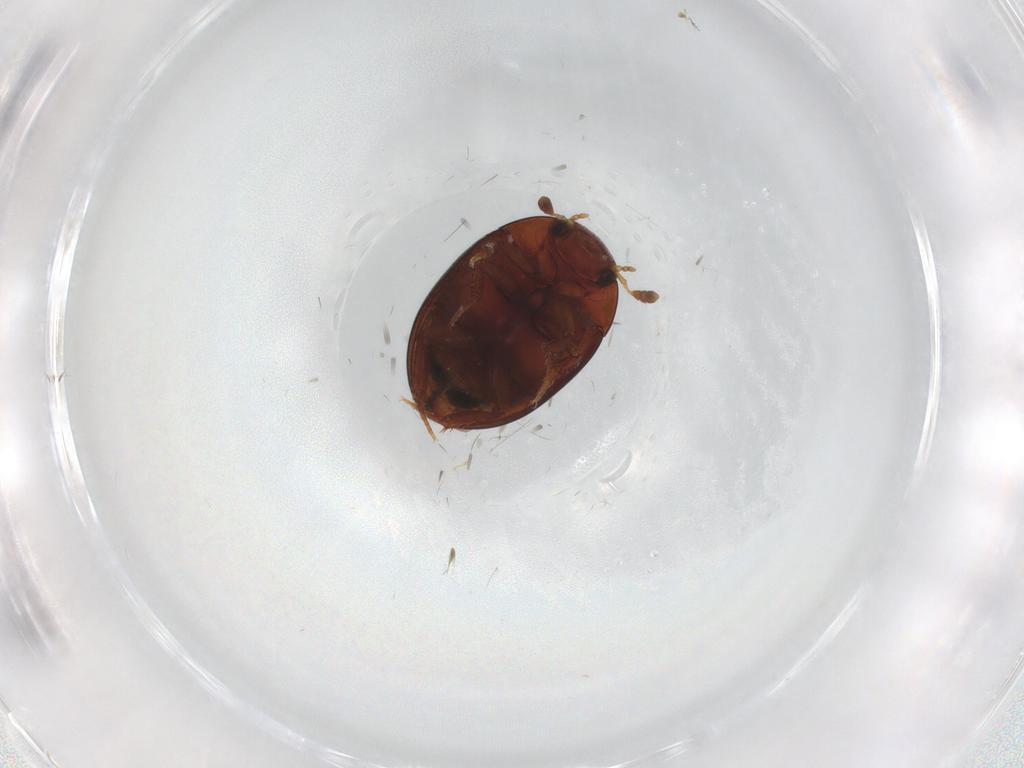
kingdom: Animalia
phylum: Arthropoda
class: Insecta
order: Coleoptera
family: Hydrophilidae
